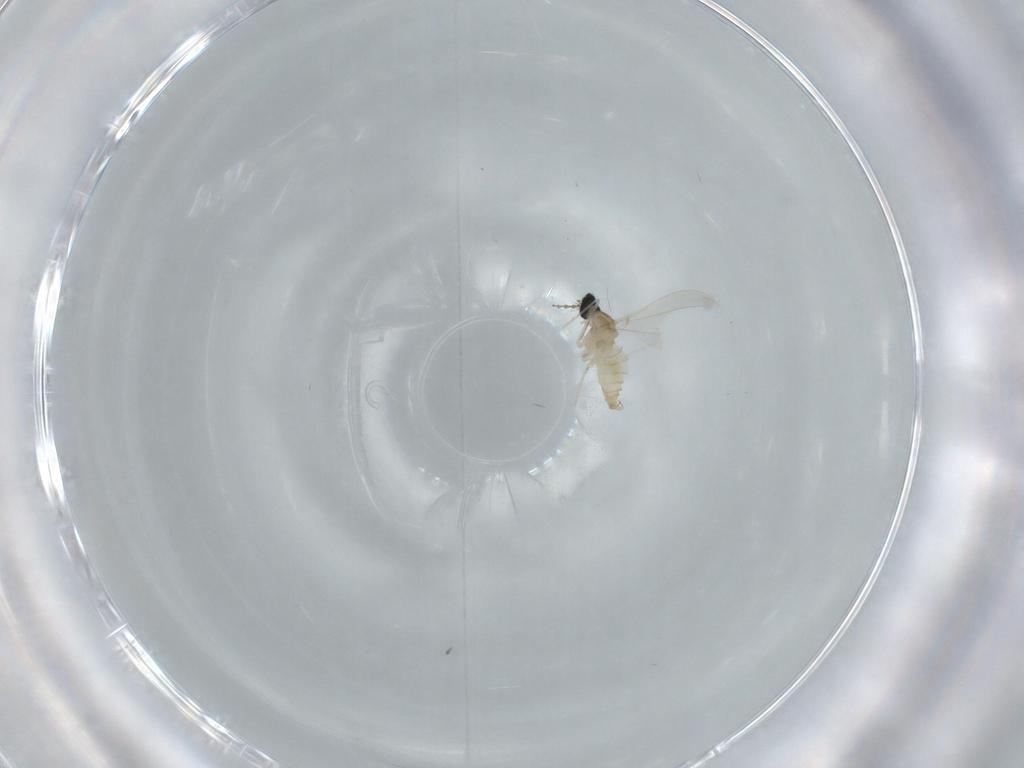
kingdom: Animalia
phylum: Arthropoda
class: Insecta
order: Diptera
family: Cecidomyiidae
